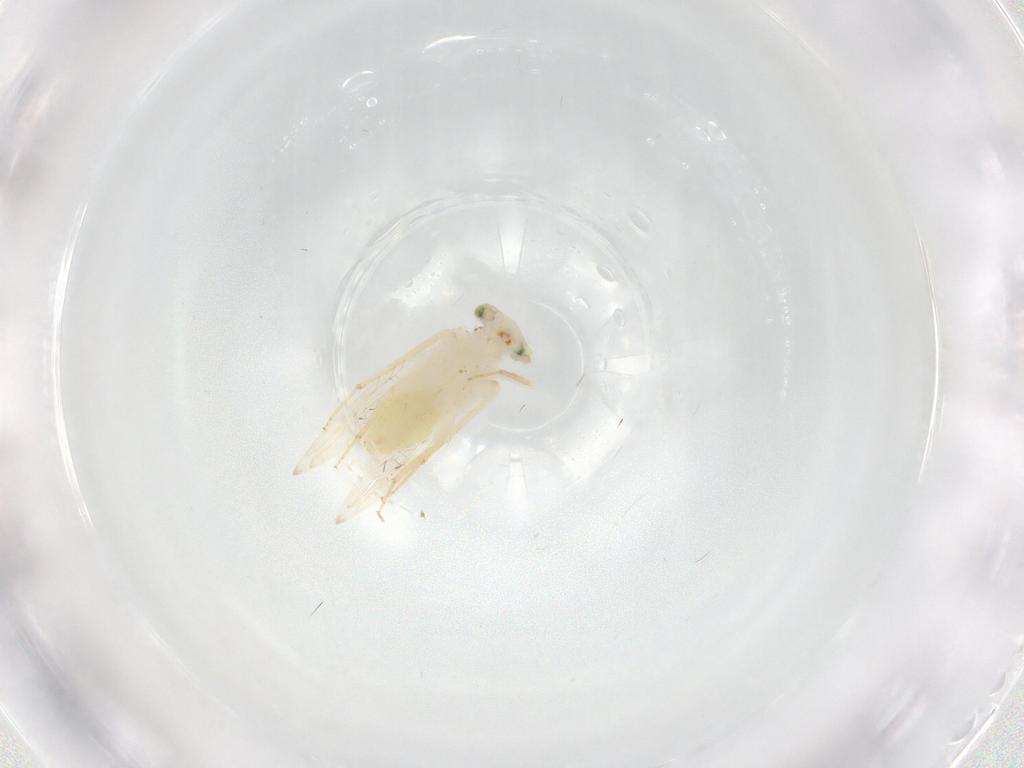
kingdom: Animalia
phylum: Arthropoda
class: Insecta
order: Psocodea
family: Lepidopsocidae
